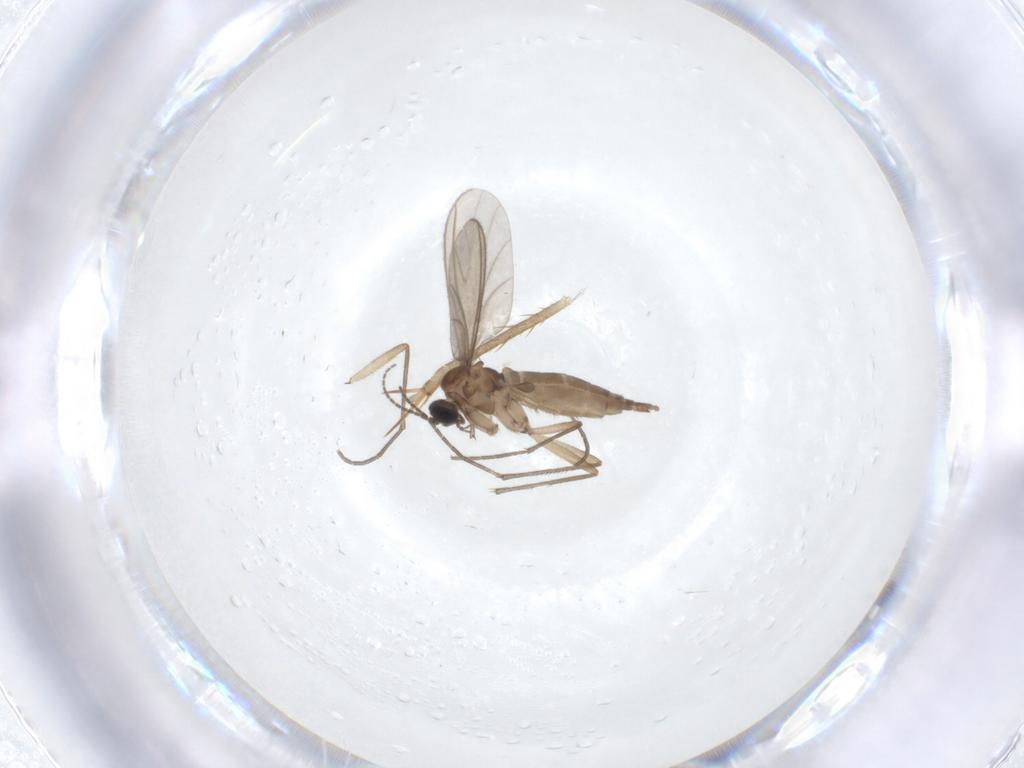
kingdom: Animalia
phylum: Arthropoda
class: Insecta
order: Diptera
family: Sciaridae
